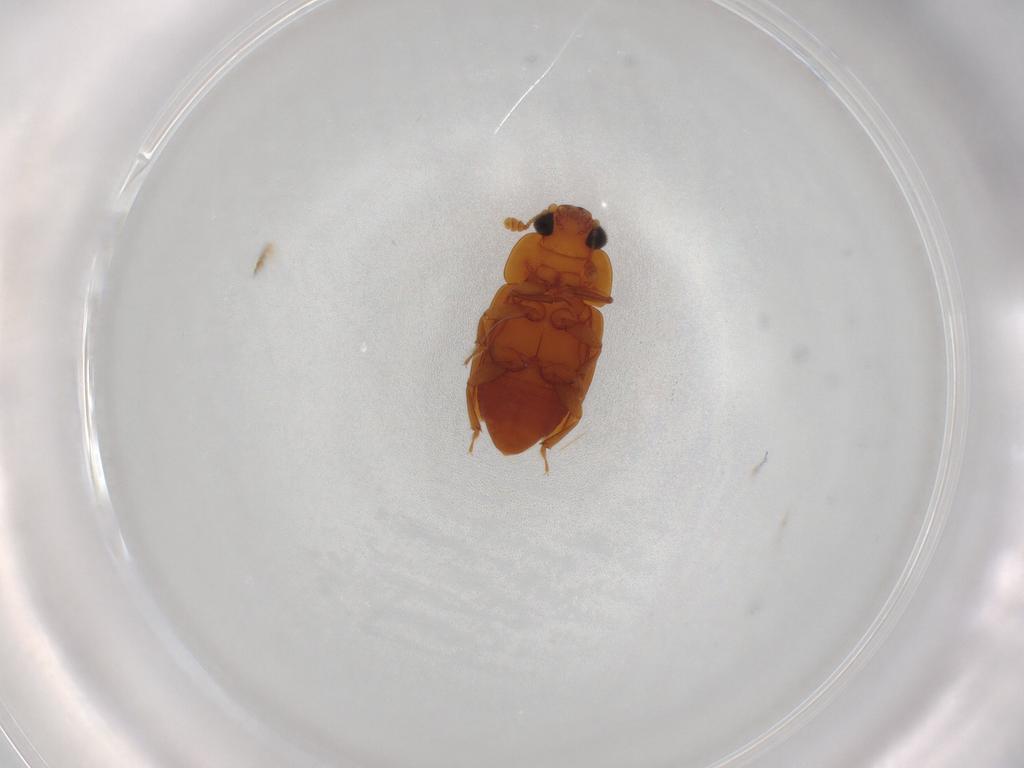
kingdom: Animalia
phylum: Arthropoda
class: Insecta
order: Coleoptera
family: Nitidulidae
